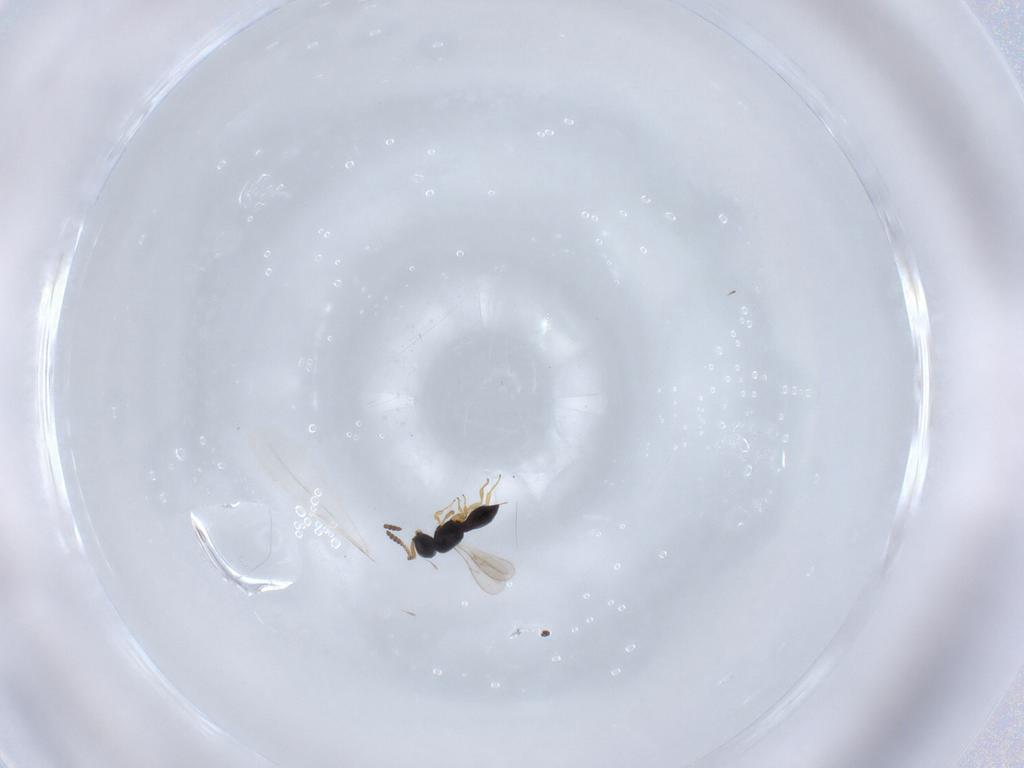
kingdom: Animalia
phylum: Arthropoda
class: Insecta
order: Hymenoptera
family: Scelionidae
